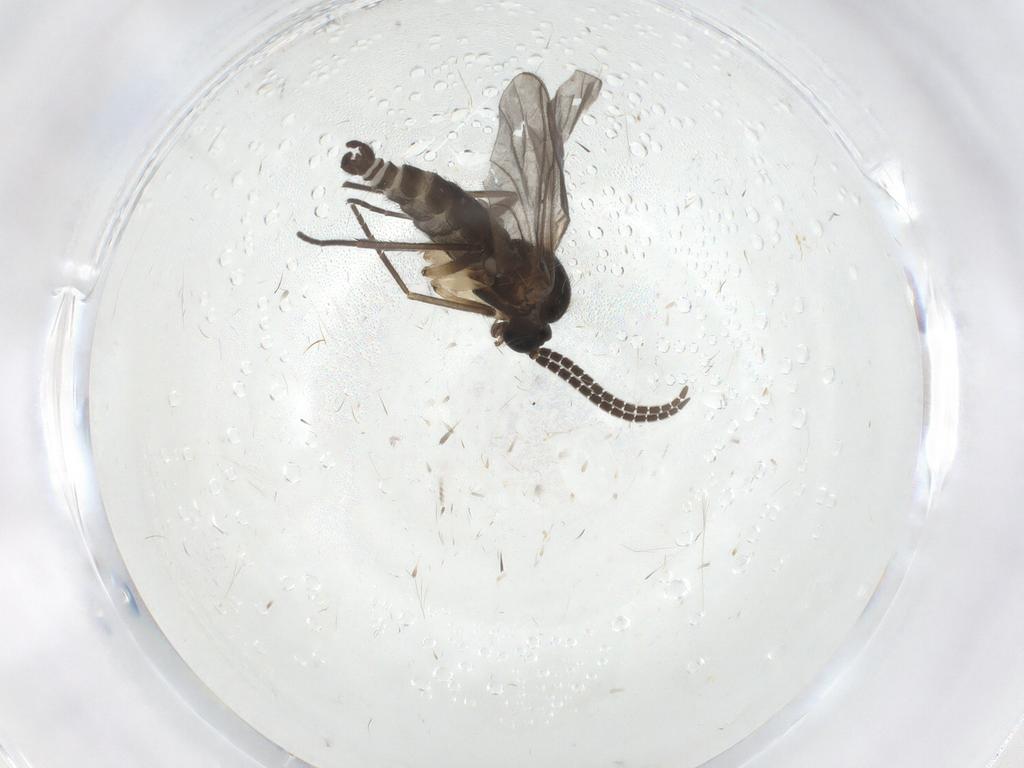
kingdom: Animalia
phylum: Arthropoda
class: Insecta
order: Diptera
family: Sciaridae
